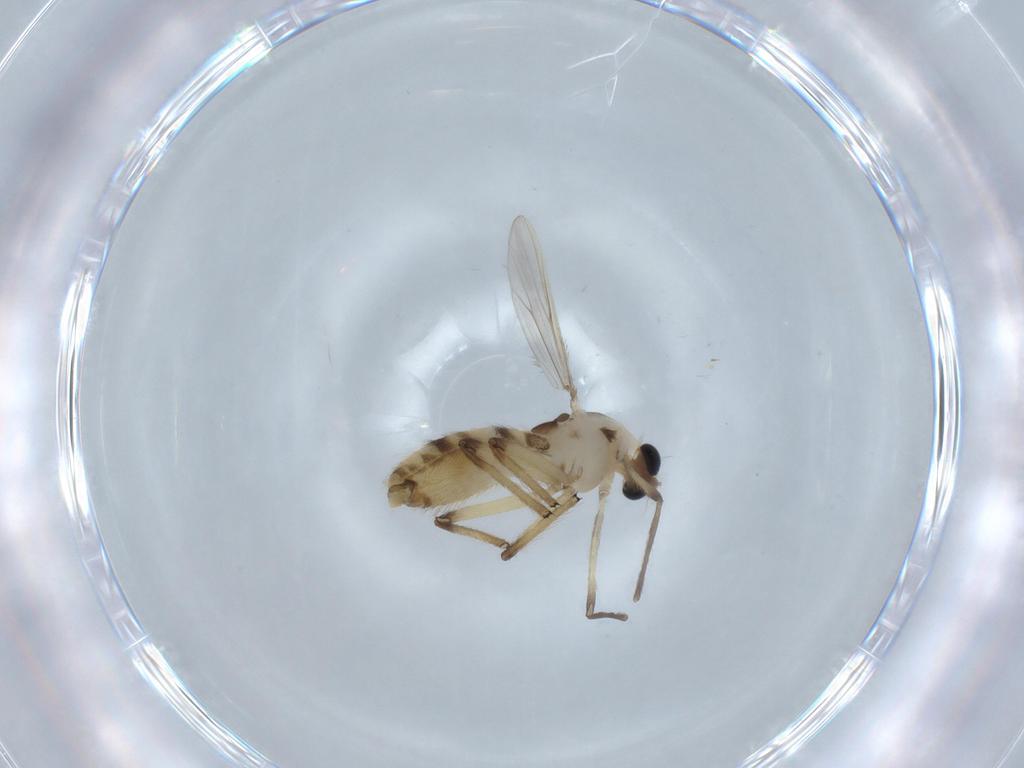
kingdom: Animalia
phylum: Arthropoda
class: Insecta
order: Diptera
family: Chironomidae
